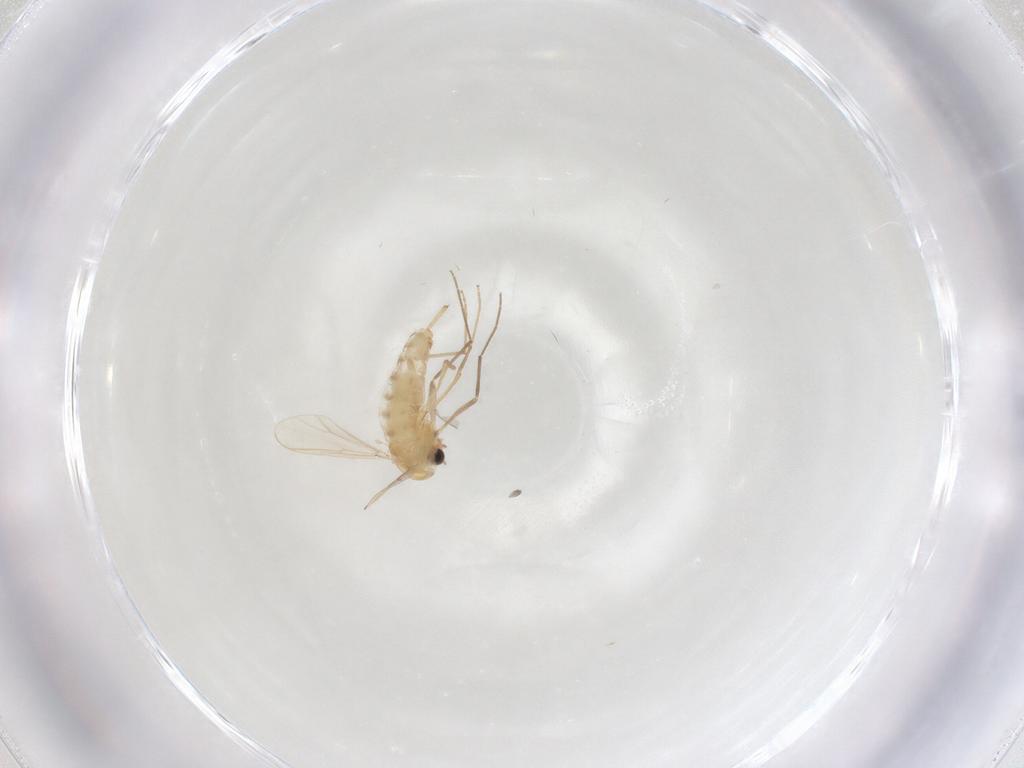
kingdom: Animalia
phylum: Arthropoda
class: Insecta
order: Diptera
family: Chironomidae
